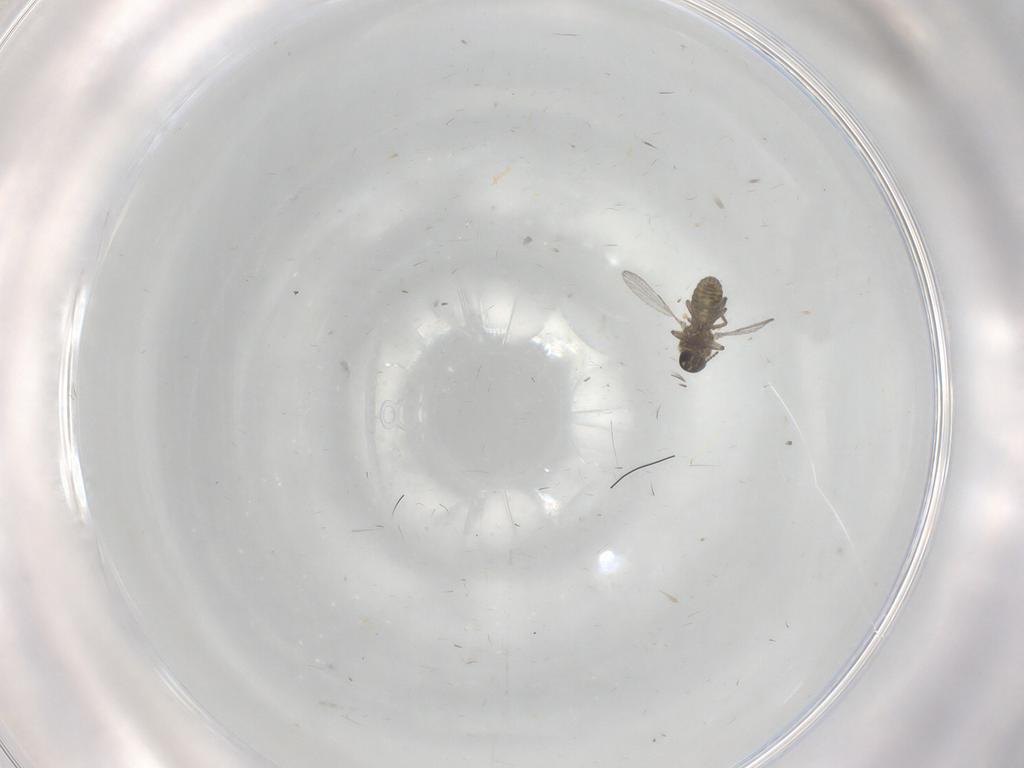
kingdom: Animalia
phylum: Arthropoda
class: Insecta
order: Diptera
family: Ceratopogonidae
